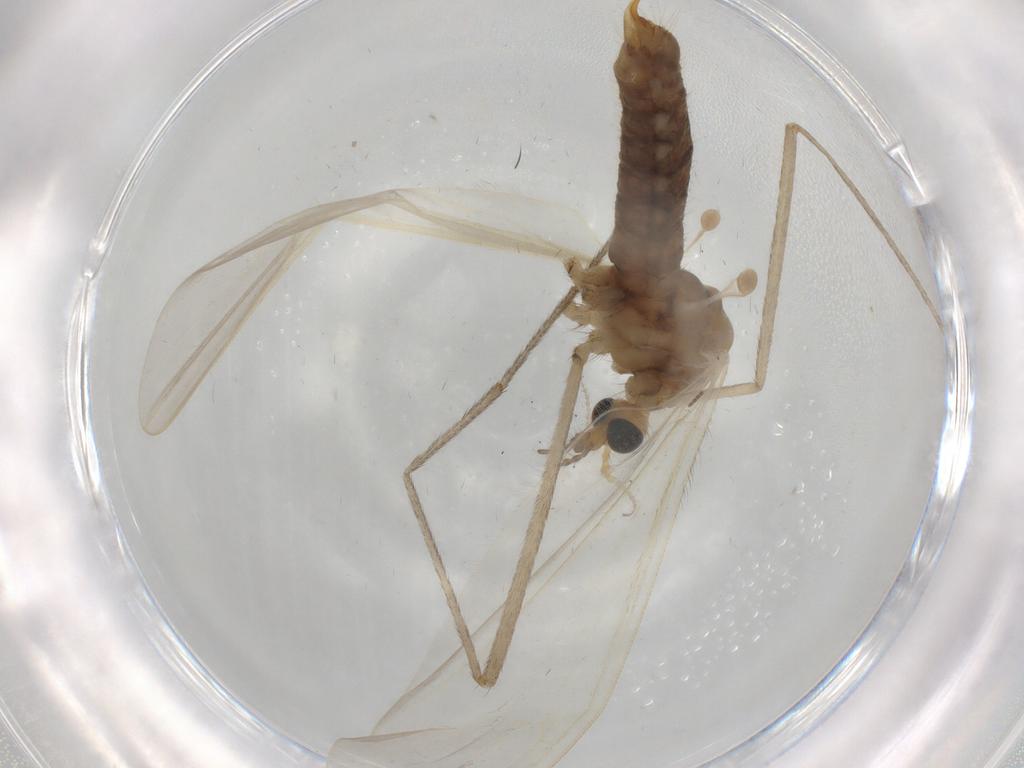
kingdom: Animalia
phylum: Arthropoda
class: Insecta
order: Diptera
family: Limoniidae
